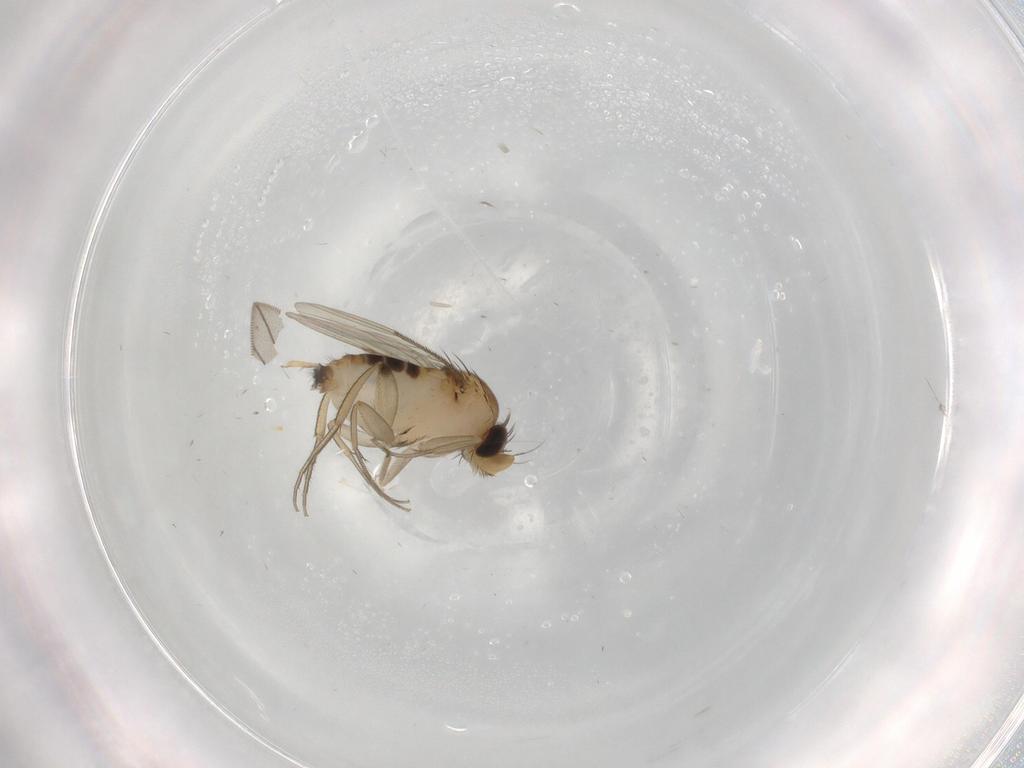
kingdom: Animalia
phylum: Arthropoda
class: Insecta
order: Diptera
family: Phoridae
